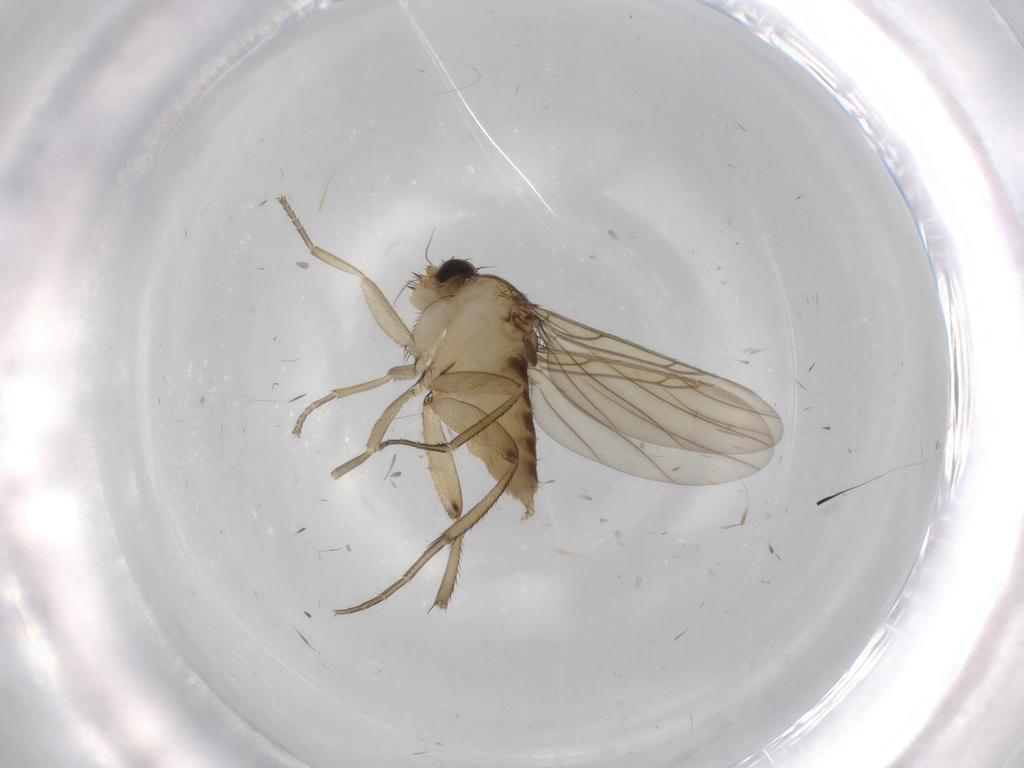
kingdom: Animalia
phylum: Arthropoda
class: Insecta
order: Diptera
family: Phoridae
